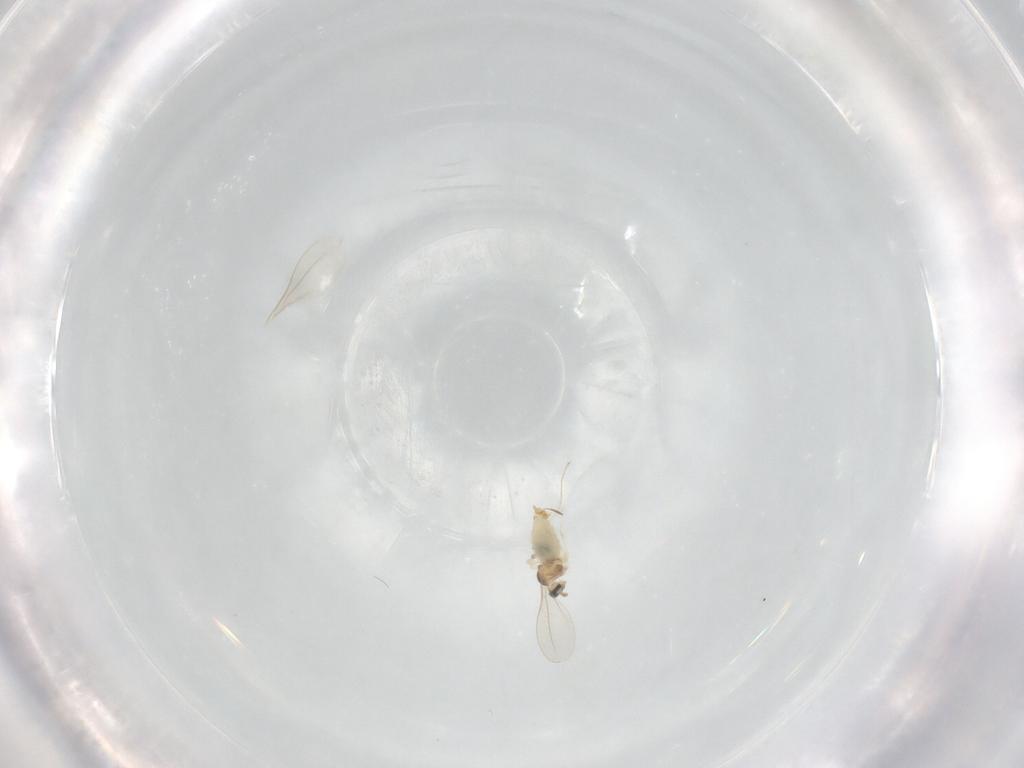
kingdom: Animalia
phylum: Arthropoda
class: Insecta
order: Diptera
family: Cecidomyiidae
